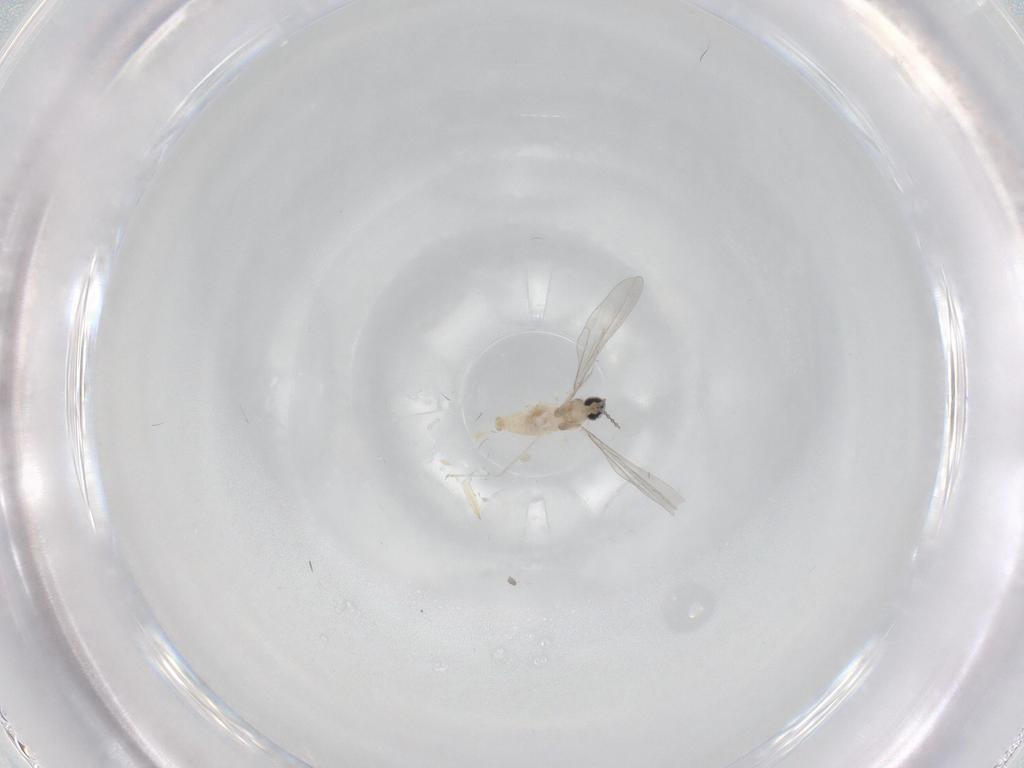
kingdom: Animalia
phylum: Arthropoda
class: Insecta
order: Diptera
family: Cecidomyiidae
